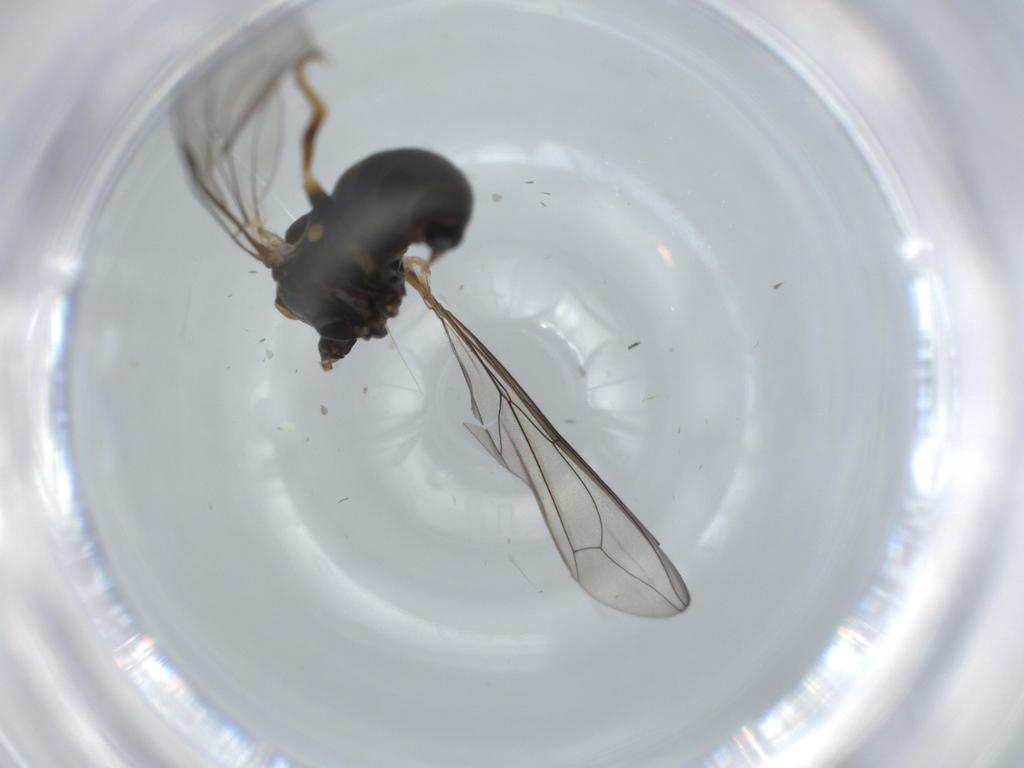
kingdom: Animalia
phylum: Arthropoda
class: Insecta
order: Diptera
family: Pipunculidae
